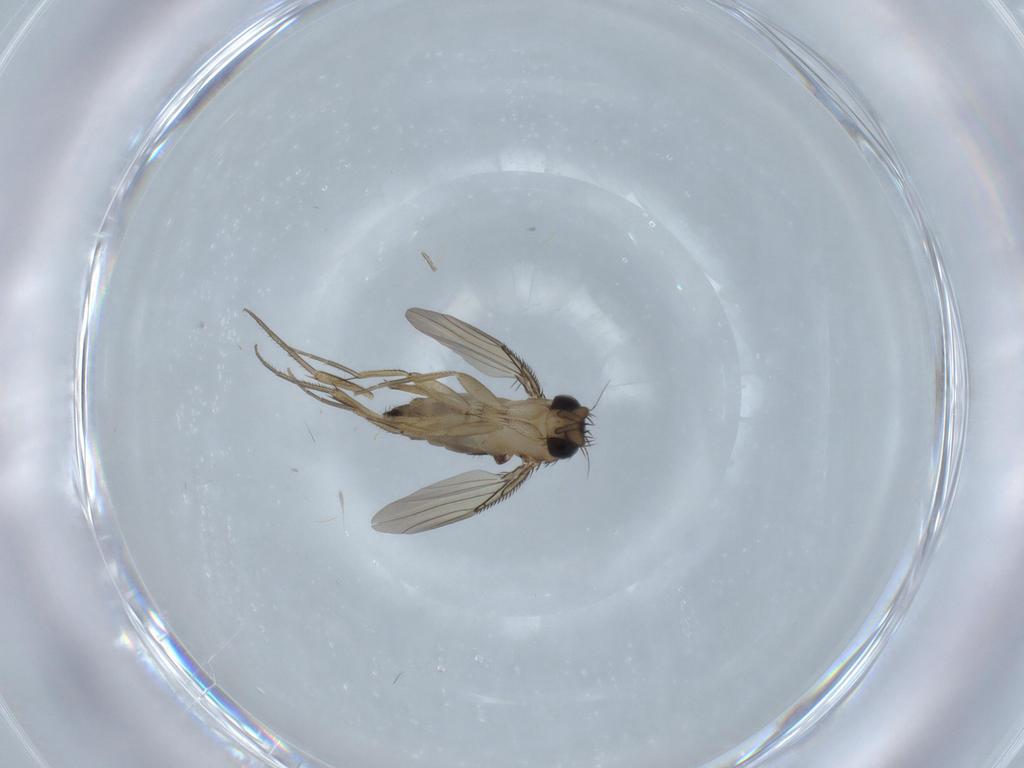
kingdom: Animalia
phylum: Arthropoda
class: Insecta
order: Diptera
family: Phoridae
